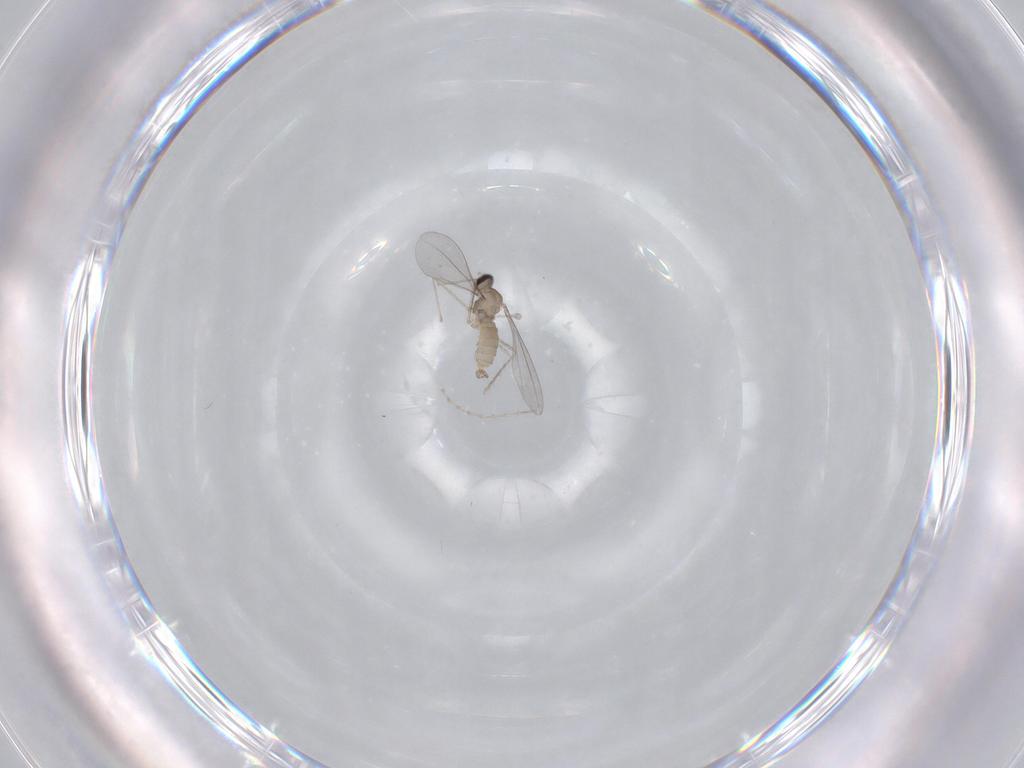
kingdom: Animalia
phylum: Arthropoda
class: Insecta
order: Diptera
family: Cecidomyiidae
